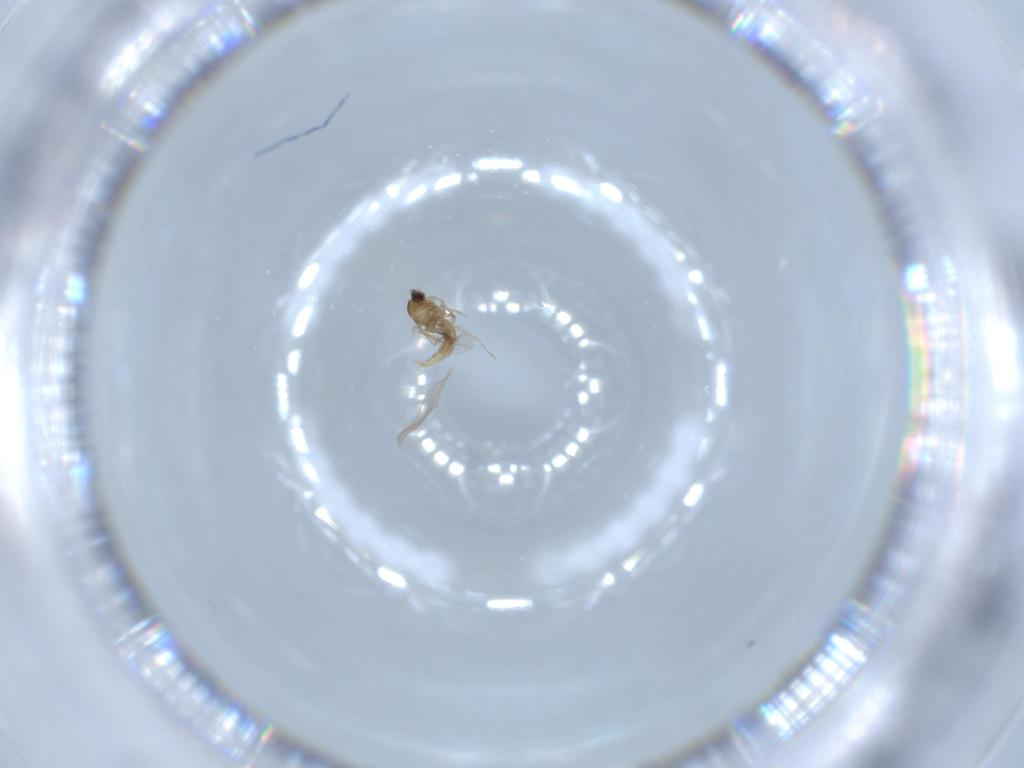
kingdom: Animalia
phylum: Arthropoda
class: Insecta
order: Diptera
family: Cecidomyiidae
